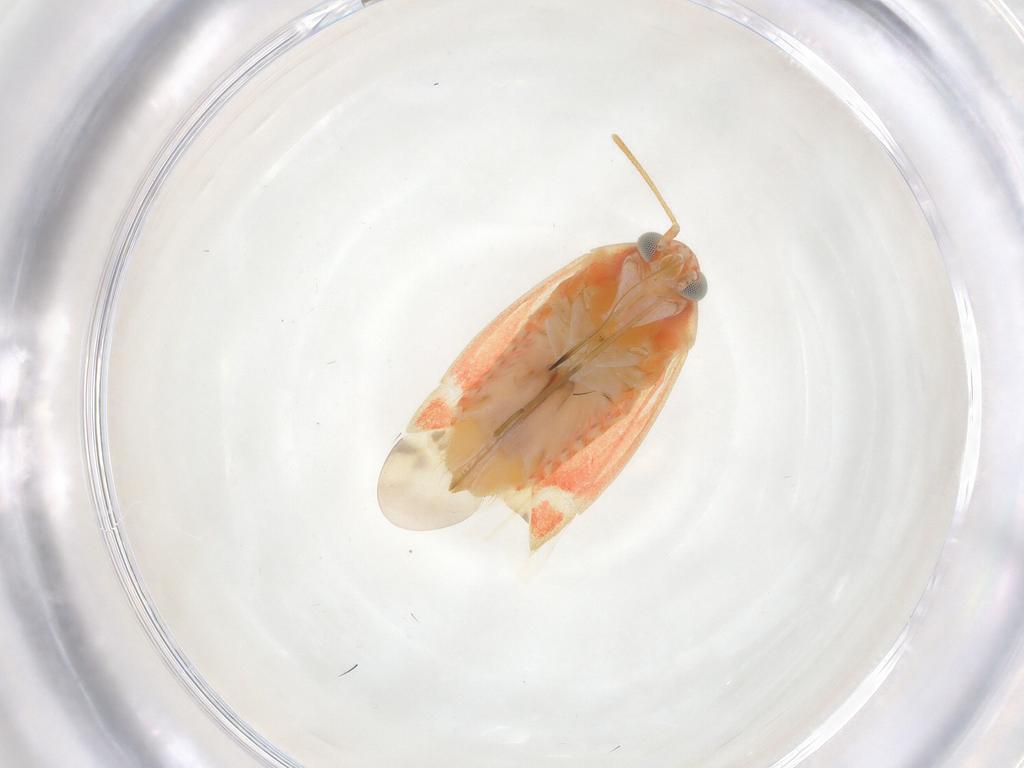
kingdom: Animalia
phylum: Arthropoda
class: Insecta
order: Hemiptera
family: Miridae
